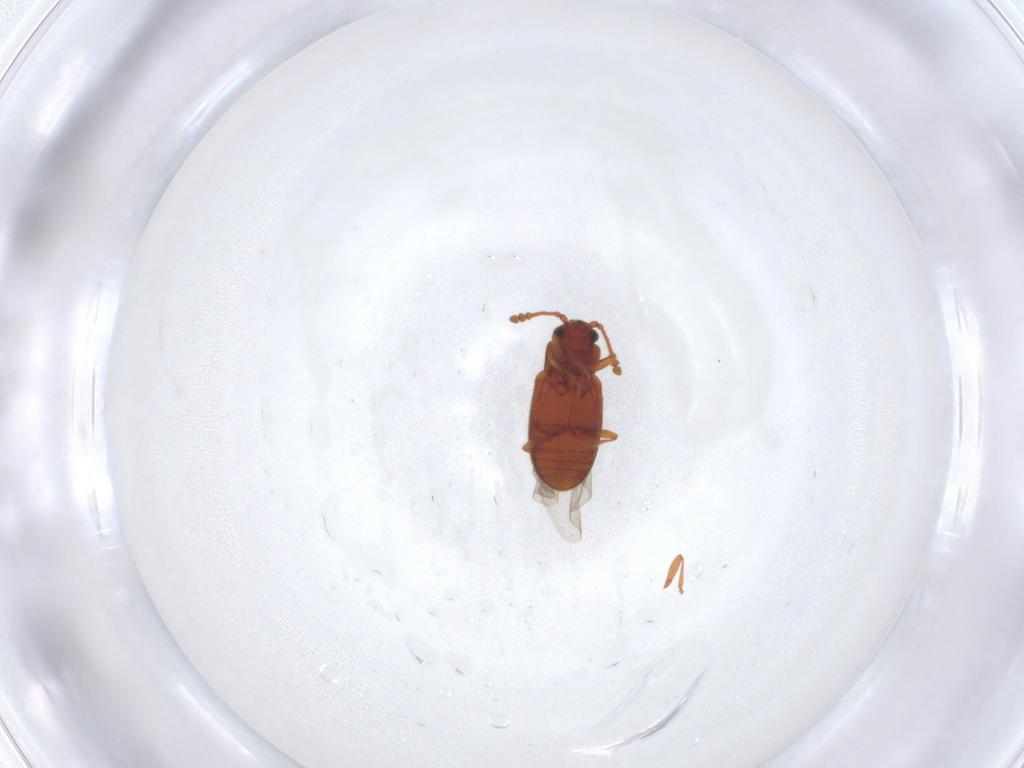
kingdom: Animalia
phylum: Arthropoda
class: Insecta
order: Coleoptera
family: Cryptophagidae
